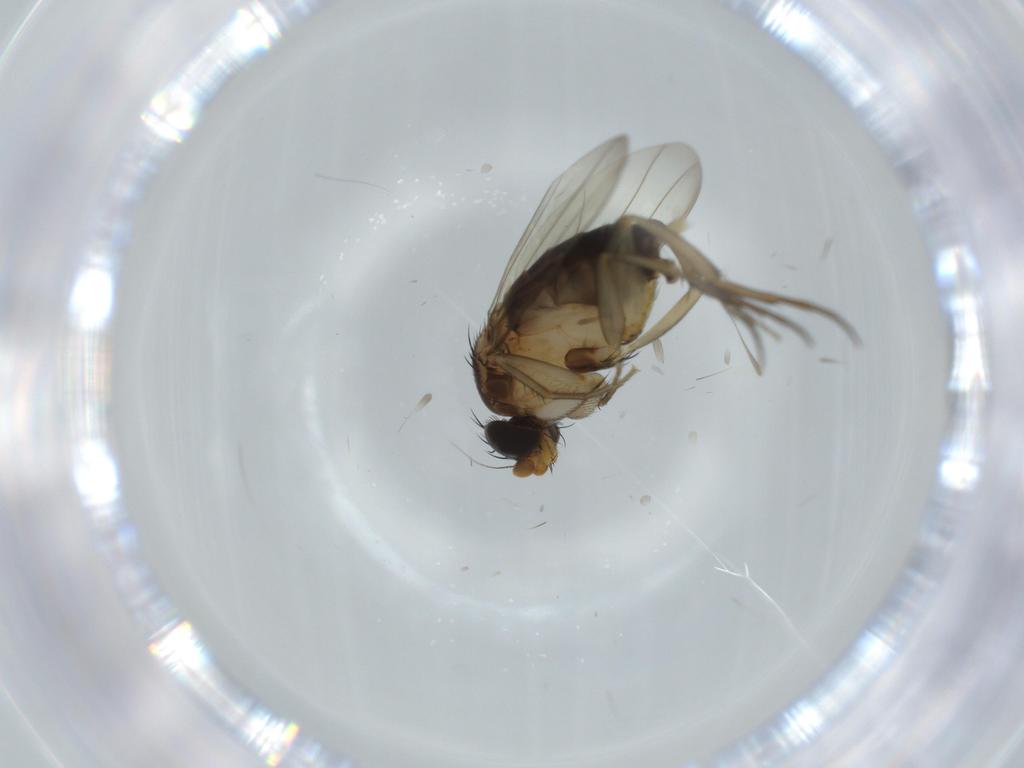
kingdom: Animalia
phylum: Arthropoda
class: Insecta
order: Diptera
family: Phoridae
